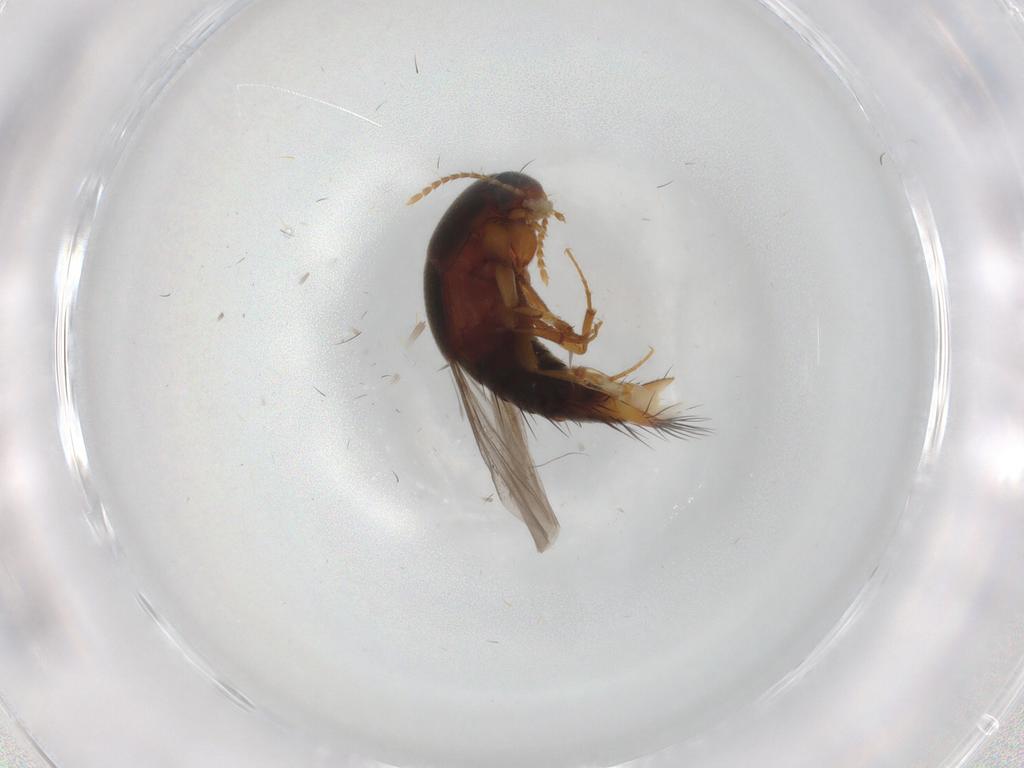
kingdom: Animalia
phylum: Arthropoda
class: Insecta
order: Coleoptera
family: Staphylinidae
